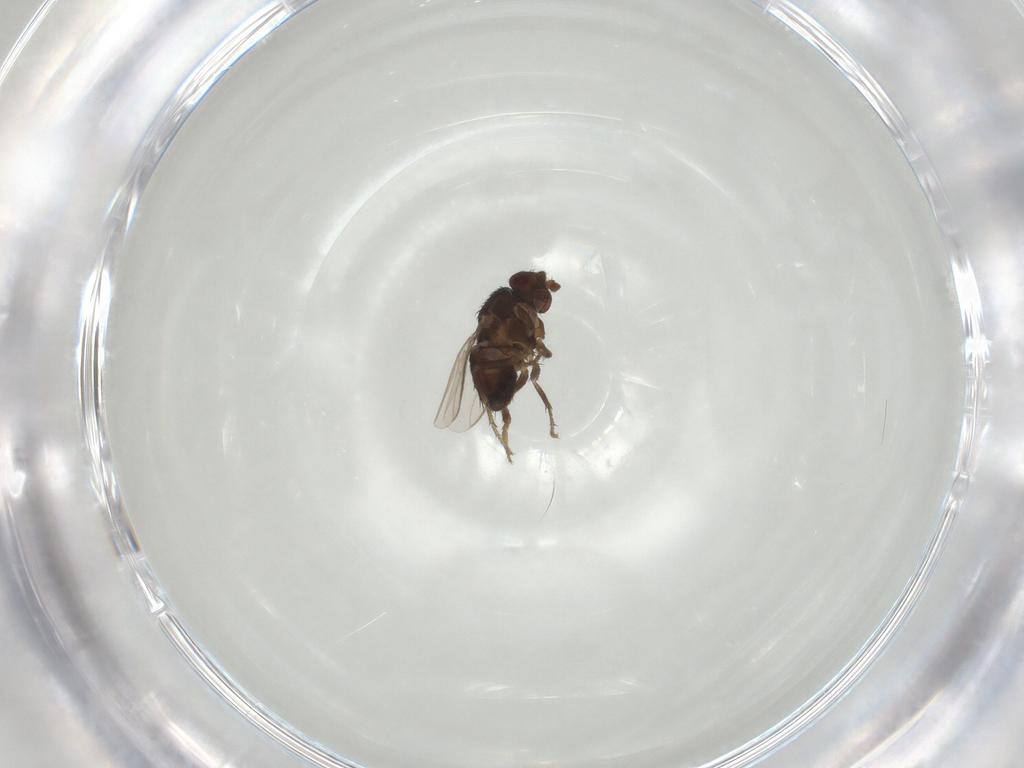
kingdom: Animalia
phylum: Arthropoda
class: Insecta
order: Diptera
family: Sphaeroceridae
